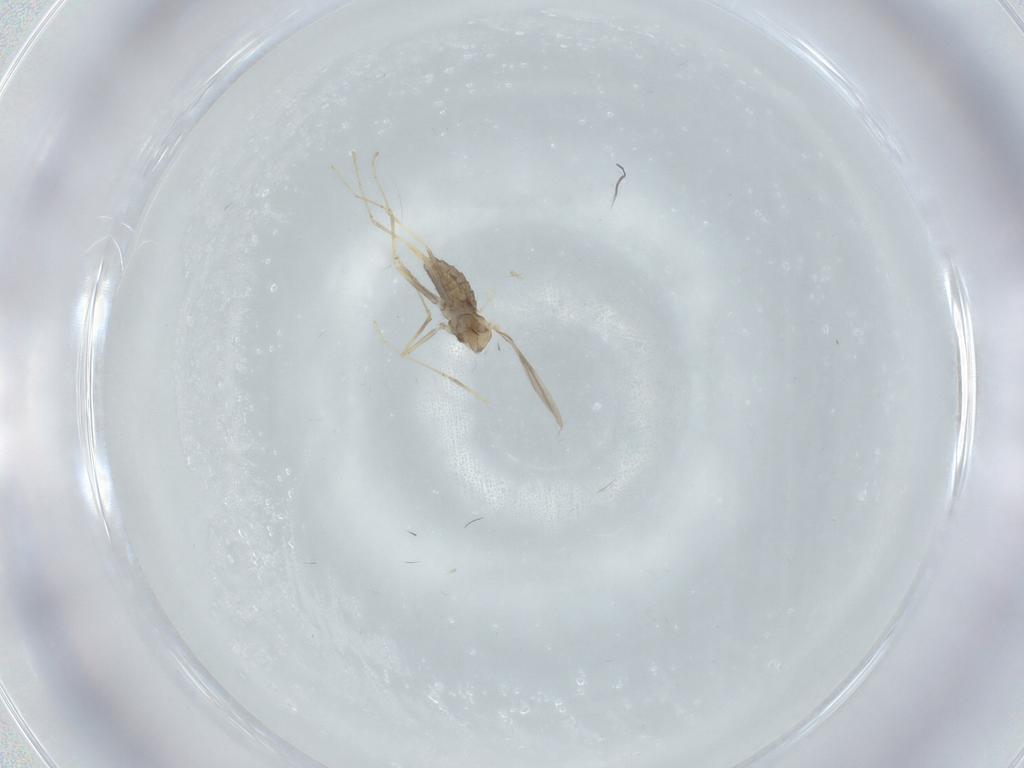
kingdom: Animalia
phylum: Arthropoda
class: Insecta
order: Diptera
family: Cecidomyiidae
